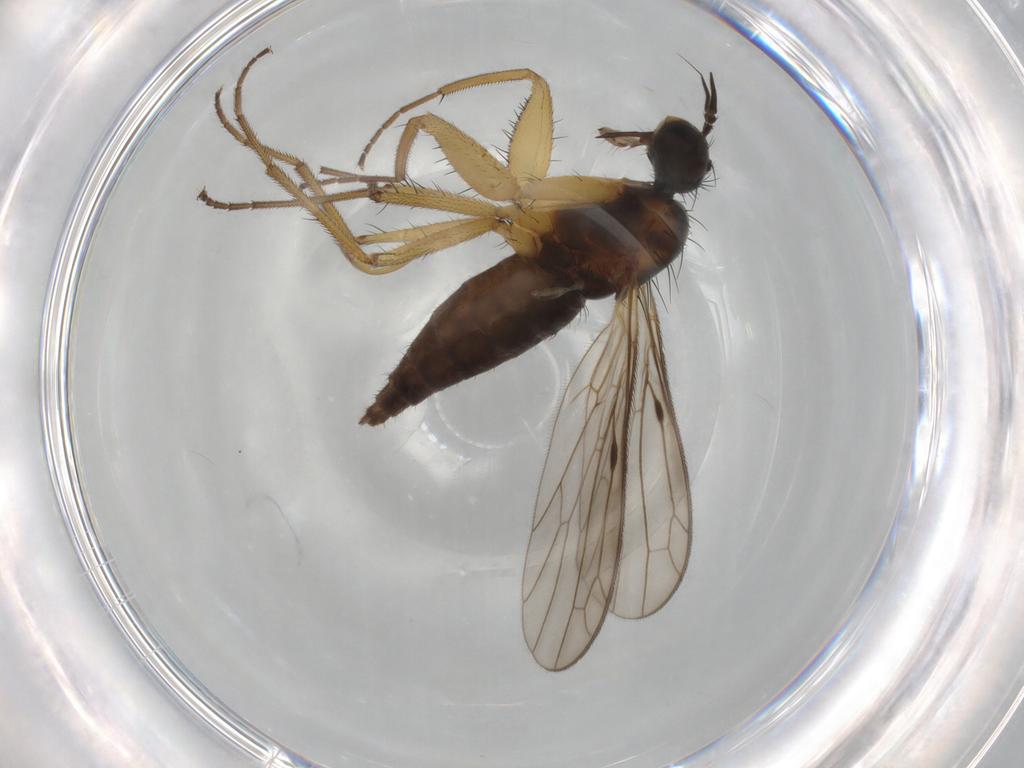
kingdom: Animalia
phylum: Arthropoda
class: Insecta
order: Diptera
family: Chironomidae
